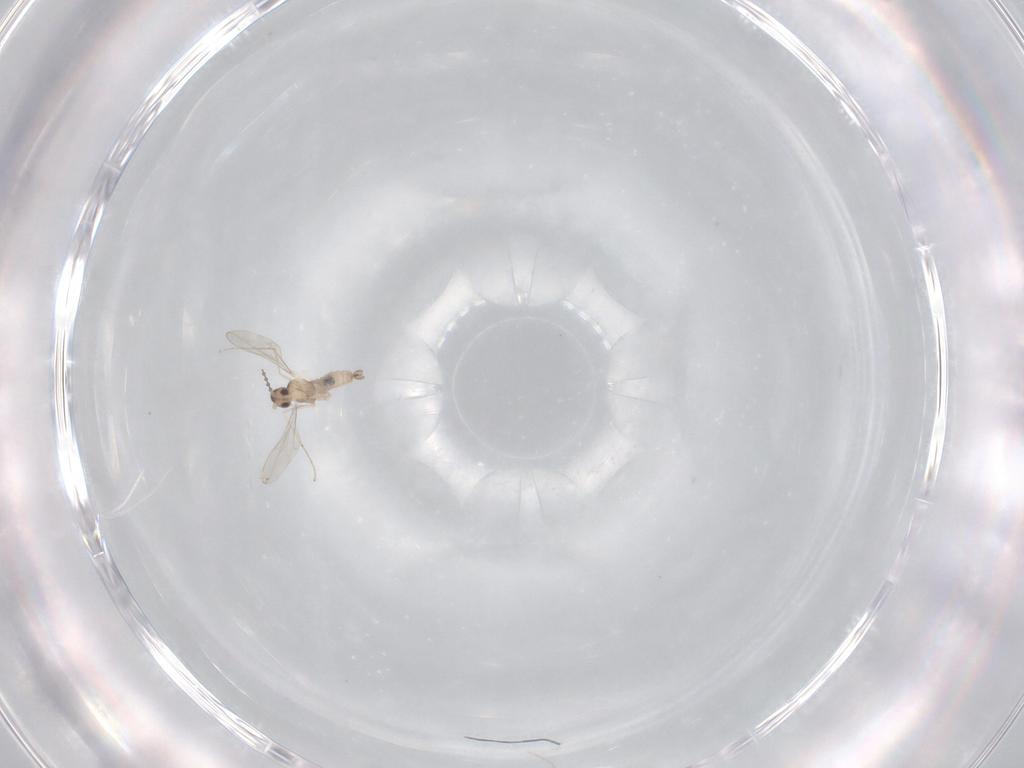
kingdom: Animalia
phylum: Arthropoda
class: Insecta
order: Diptera
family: Cecidomyiidae
